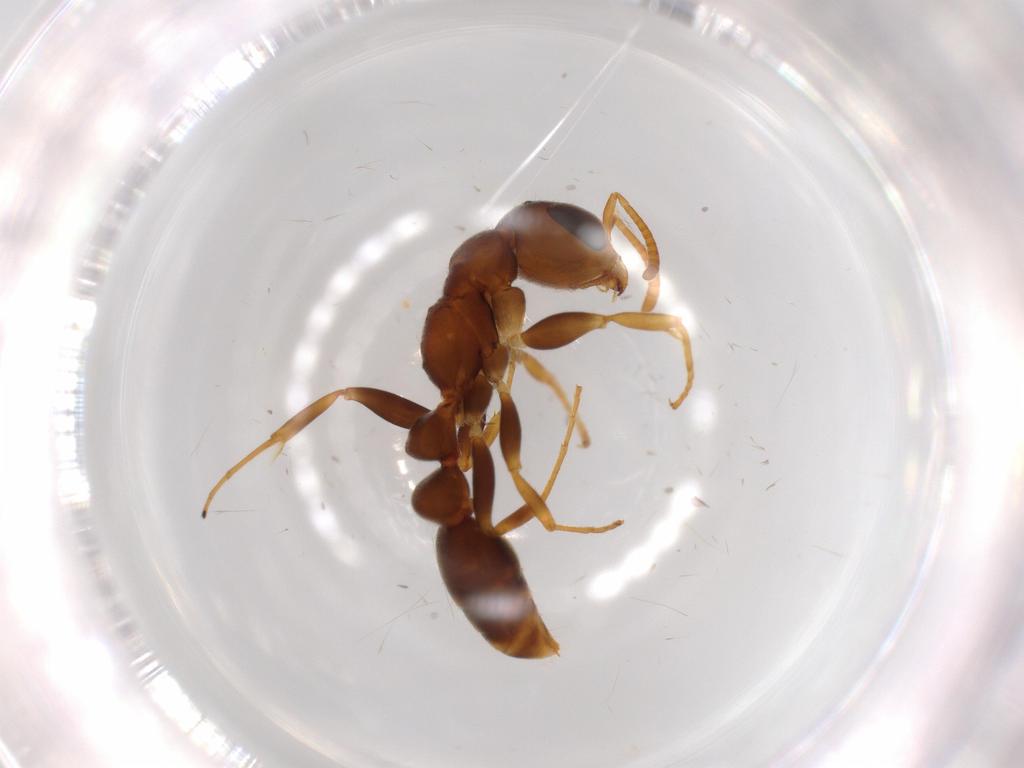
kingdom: Animalia
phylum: Arthropoda
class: Insecta
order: Hymenoptera
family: Formicidae
